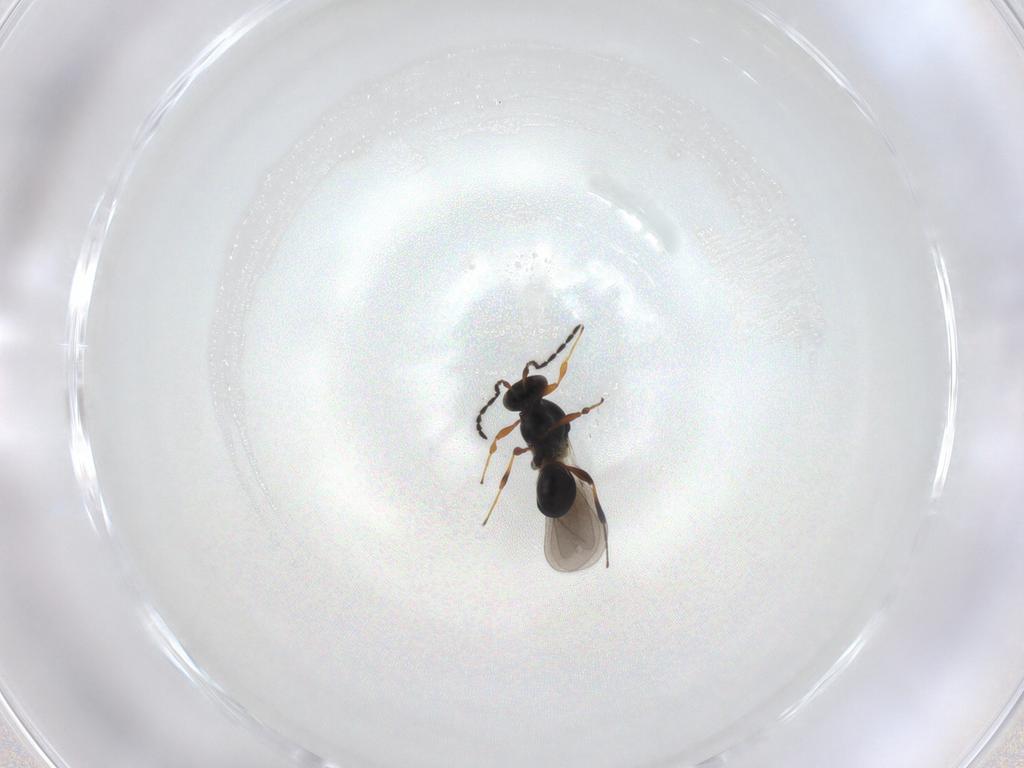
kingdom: Animalia
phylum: Arthropoda
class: Insecta
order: Hymenoptera
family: Platygastridae
